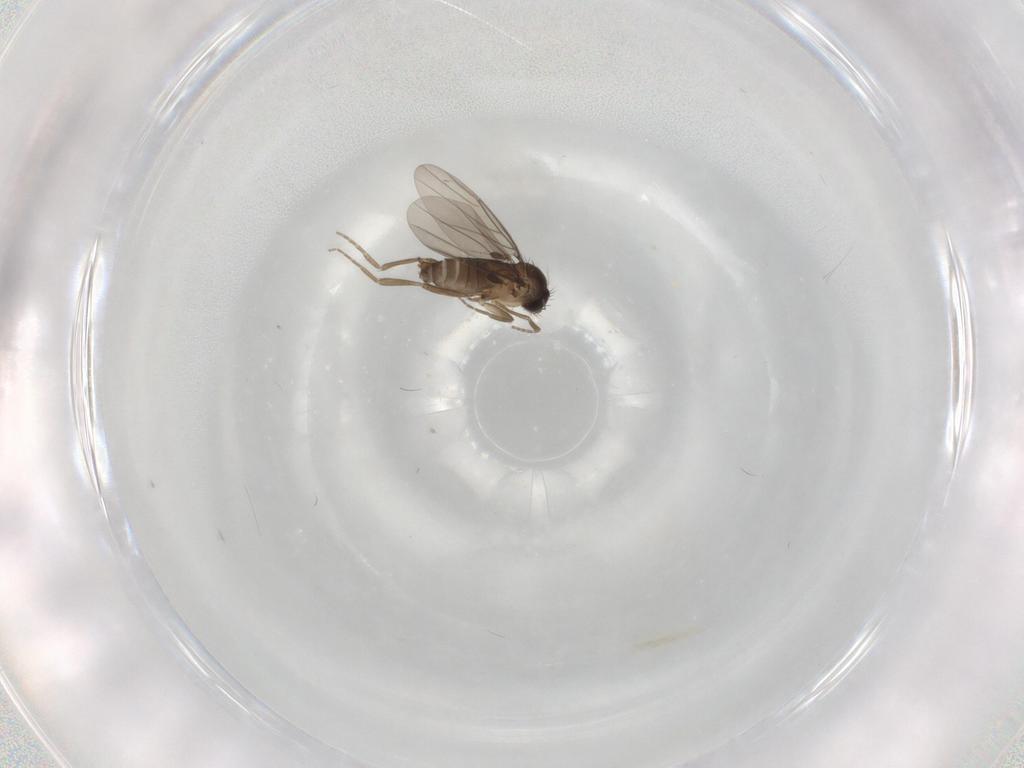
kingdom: Animalia
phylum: Arthropoda
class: Insecta
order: Diptera
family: Phoridae
